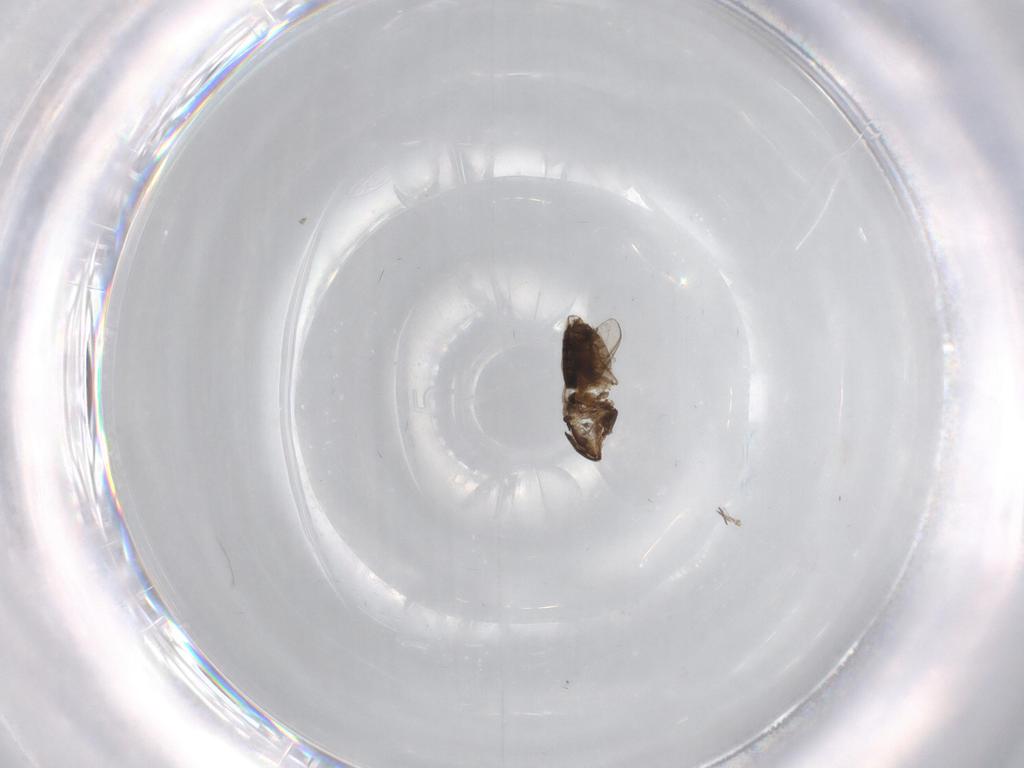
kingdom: Animalia
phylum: Arthropoda
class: Insecta
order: Diptera
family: Cecidomyiidae
